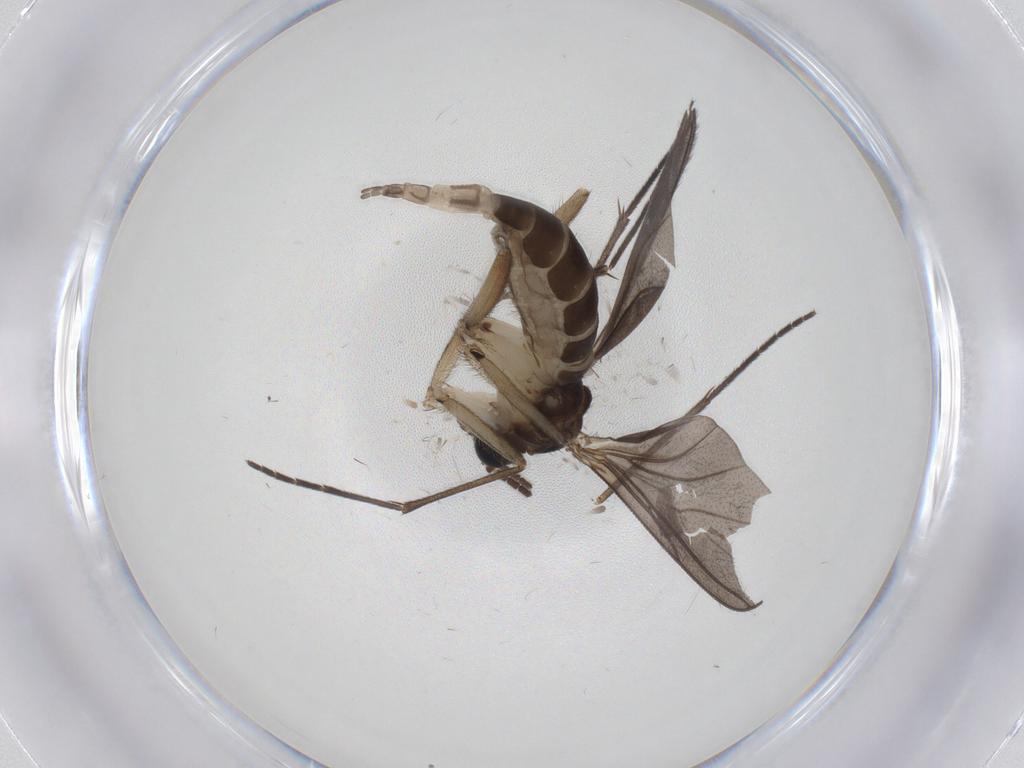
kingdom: Animalia
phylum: Arthropoda
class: Insecta
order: Diptera
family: Sciaridae
